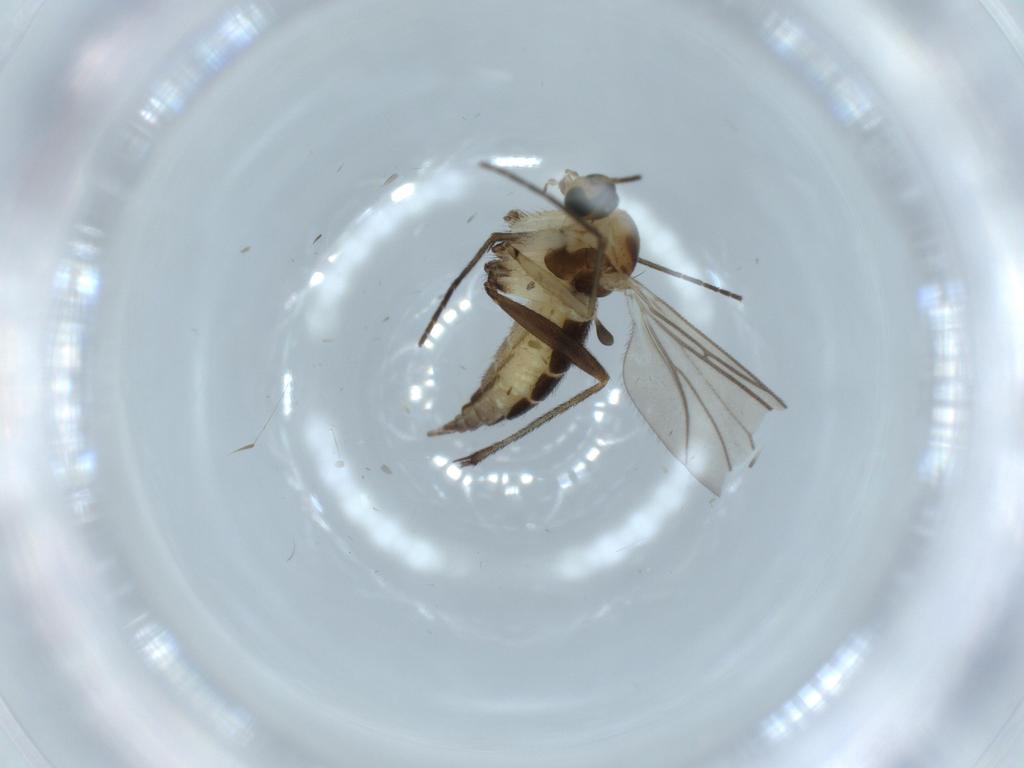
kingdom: Animalia
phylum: Arthropoda
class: Insecta
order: Diptera
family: Sciaridae
